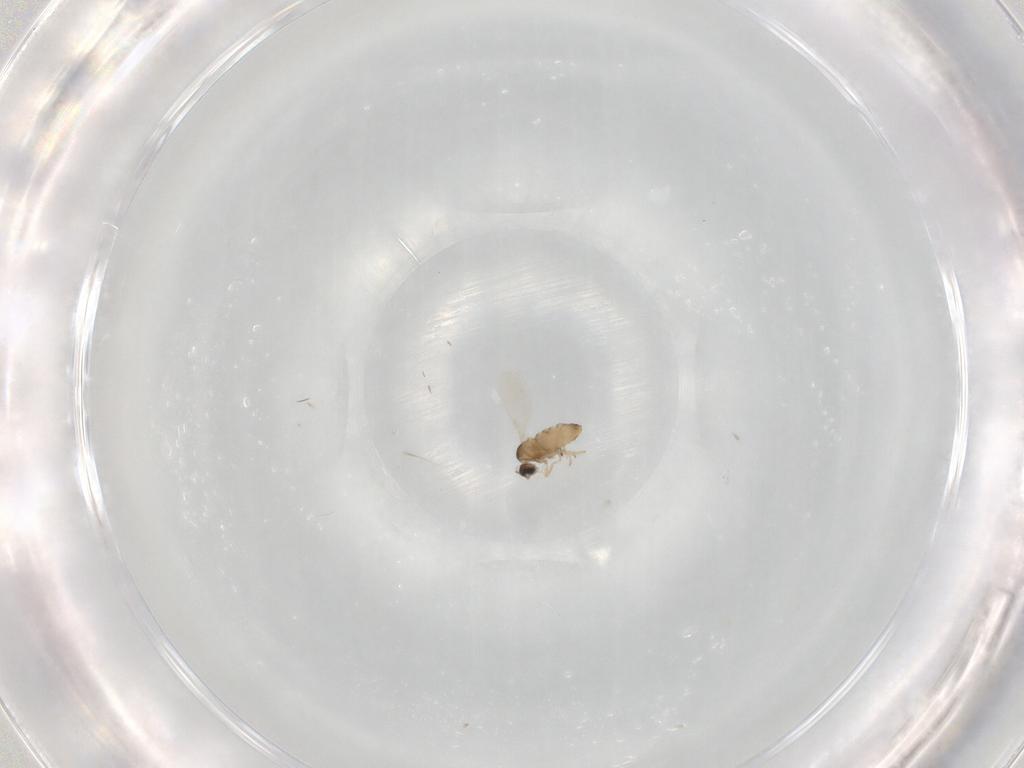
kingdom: Animalia
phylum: Arthropoda
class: Insecta
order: Diptera
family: Cecidomyiidae
